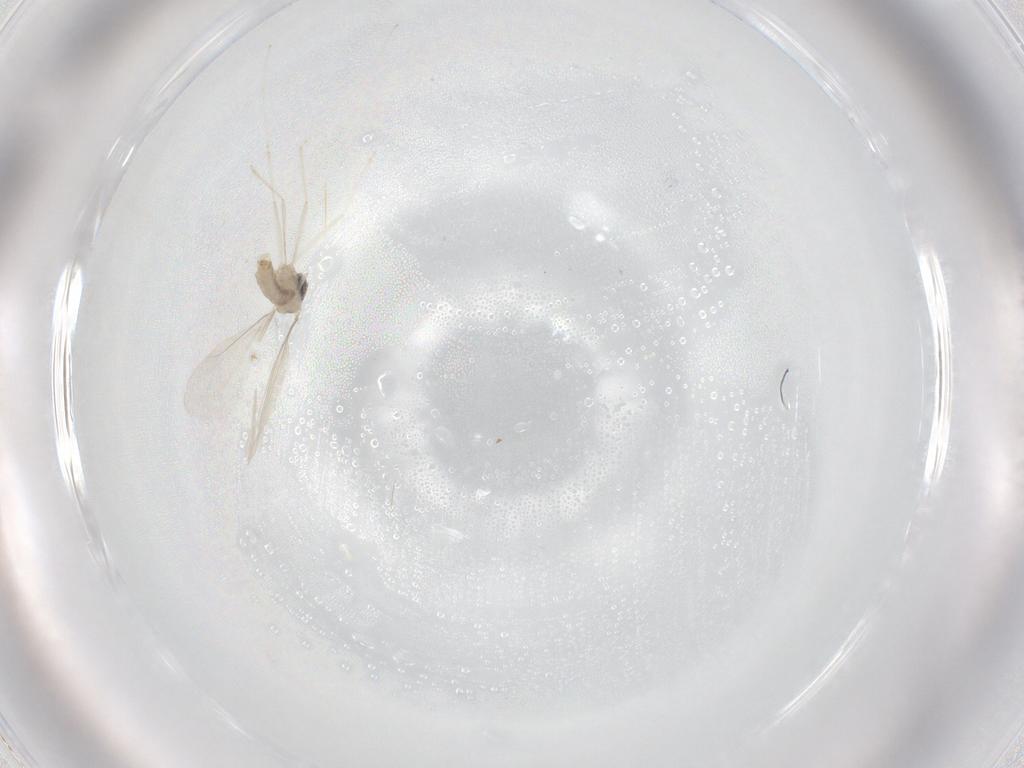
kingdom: Animalia
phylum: Arthropoda
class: Insecta
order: Diptera
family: Cecidomyiidae
